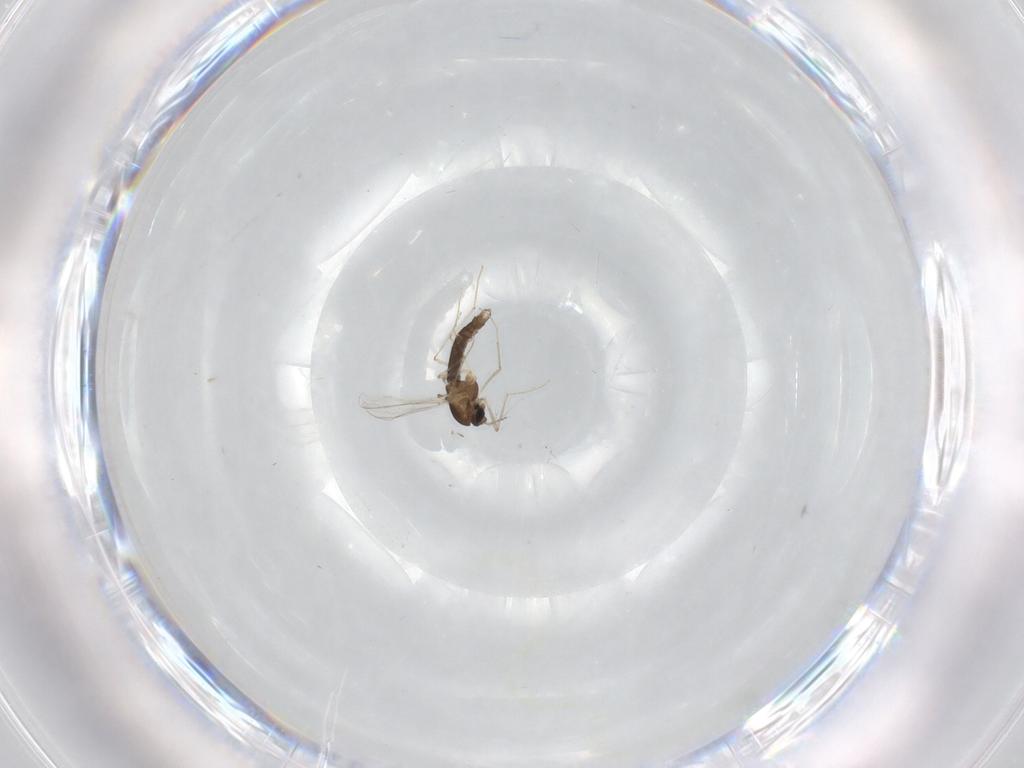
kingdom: Animalia
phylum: Arthropoda
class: Insecta
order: Diptera
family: Chironomidae
